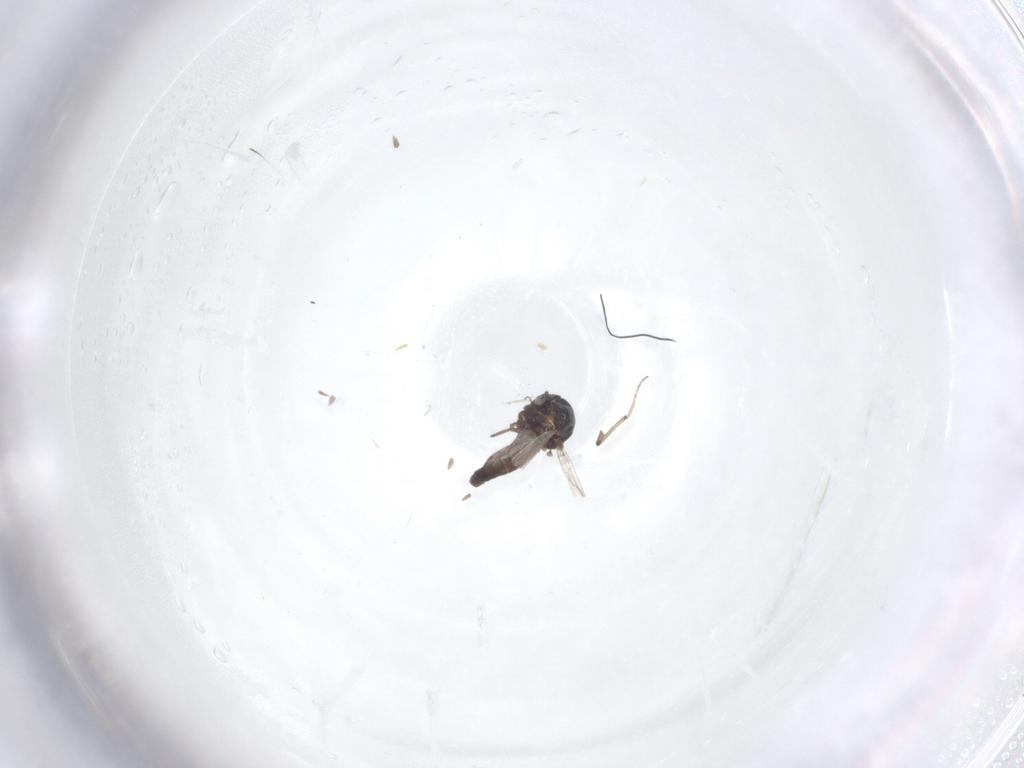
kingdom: Animalia
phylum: Arthropoda
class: Insecta
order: Diptera
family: Ceratopogonidae
